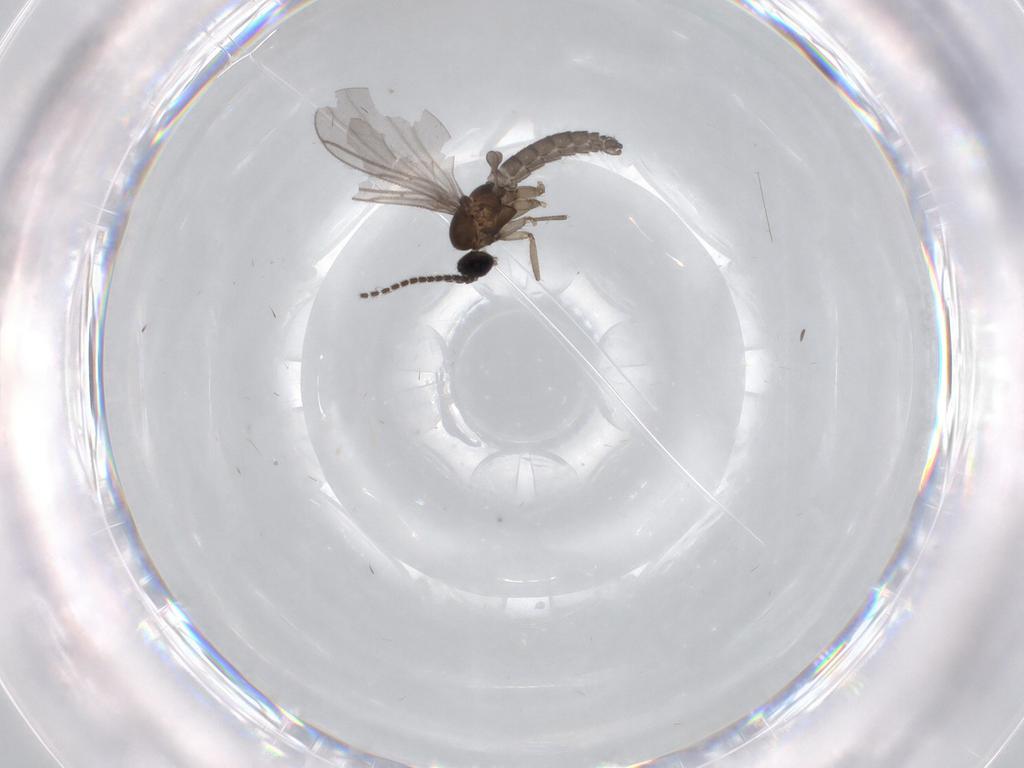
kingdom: Animalia
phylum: Arthropoda
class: Insecta
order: Diptera
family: Sciaridae
